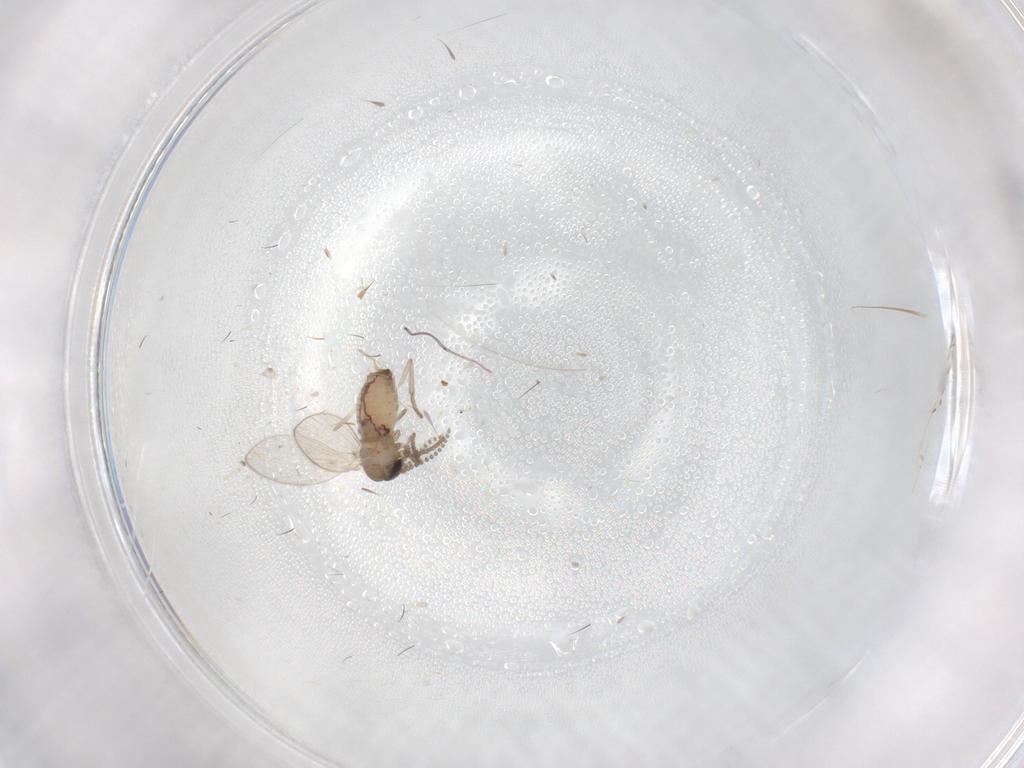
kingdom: Animalia
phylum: Arthropoda
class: Insecta
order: Diptera
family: Psychodidae
